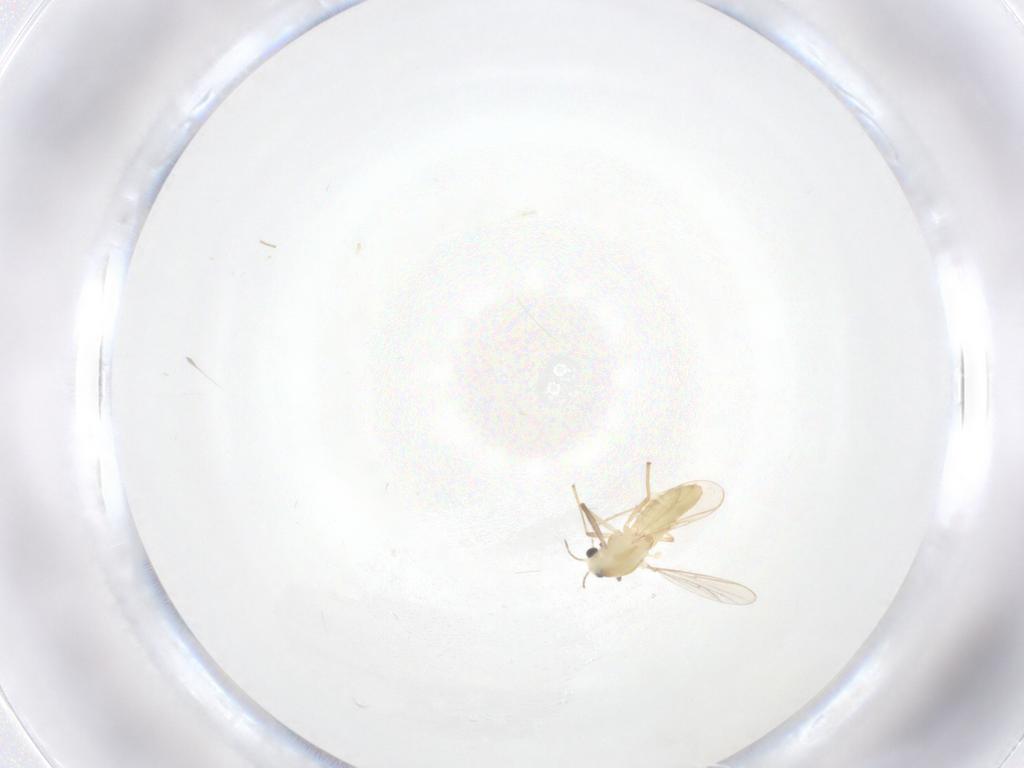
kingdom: Animalia
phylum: Arthropoda
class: Insecta
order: Diptera
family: Chironomidae
